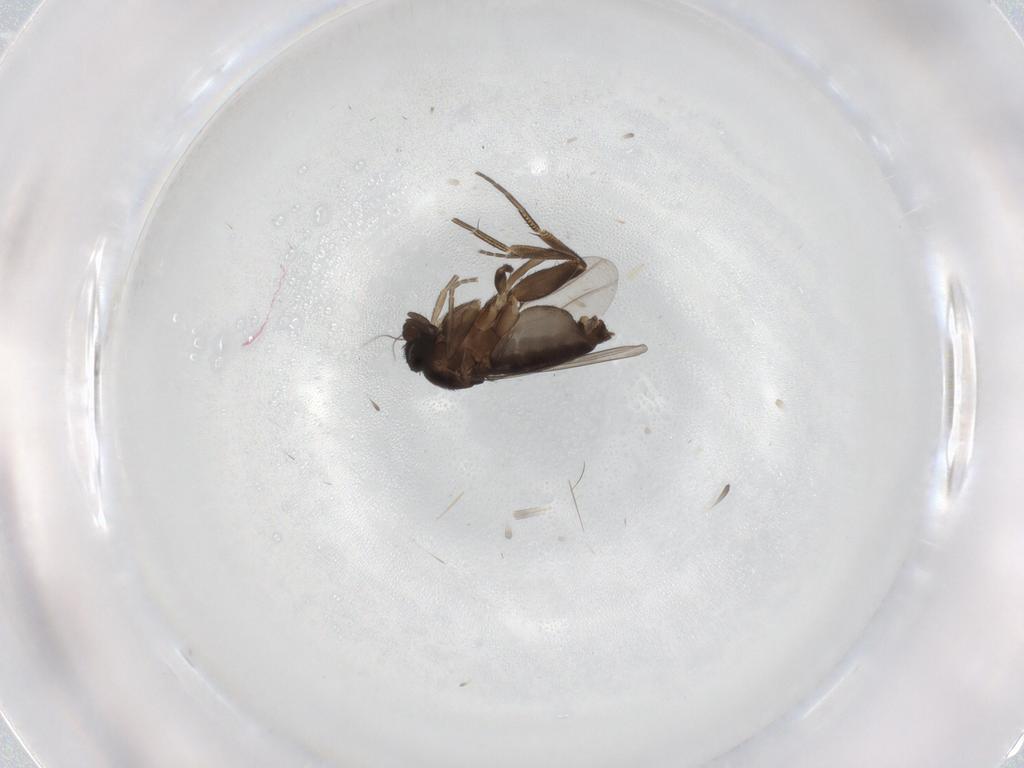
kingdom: Animalia
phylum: Arthropoda
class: Insecta
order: Diptera
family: Phoridae
